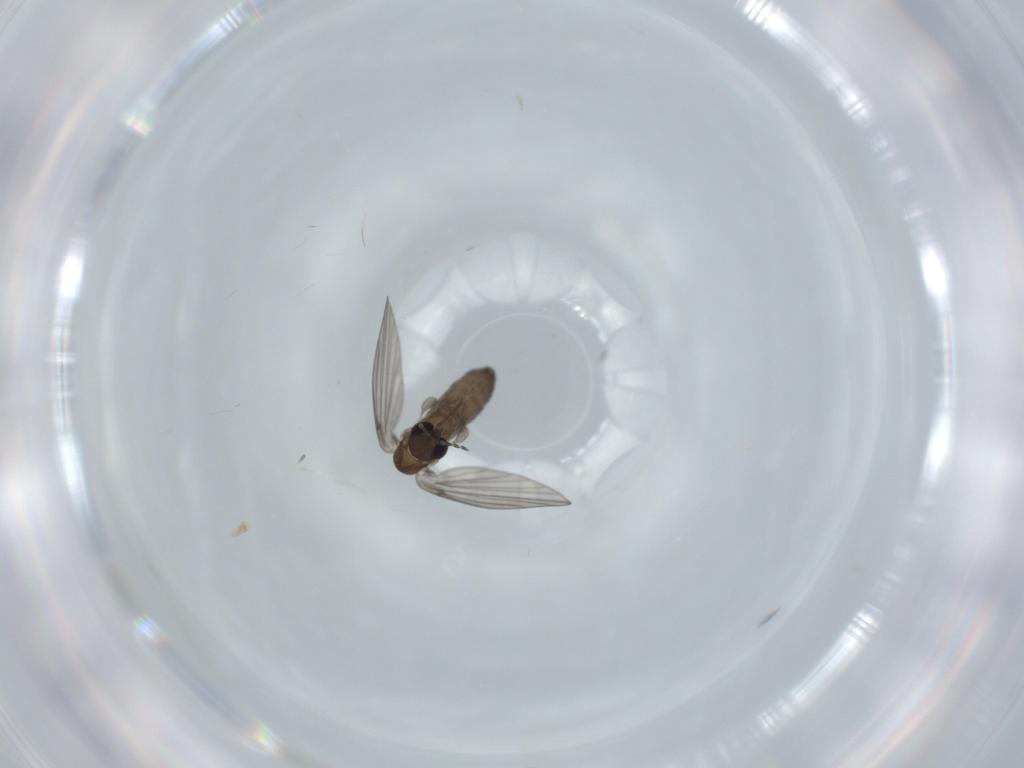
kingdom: Animalia
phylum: Arthropoda
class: Insecta
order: Diptera
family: Psychodidae
